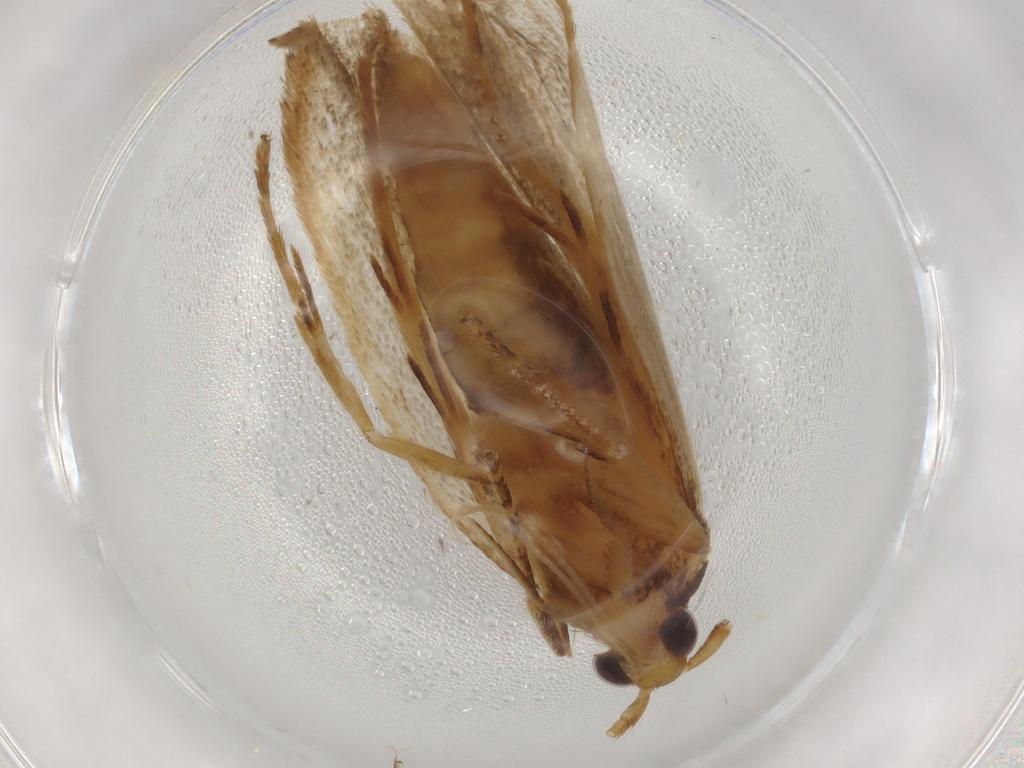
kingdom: Animalia
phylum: Arthropoda
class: Insecta
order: Lepidoptera
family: Lecithoceridae
